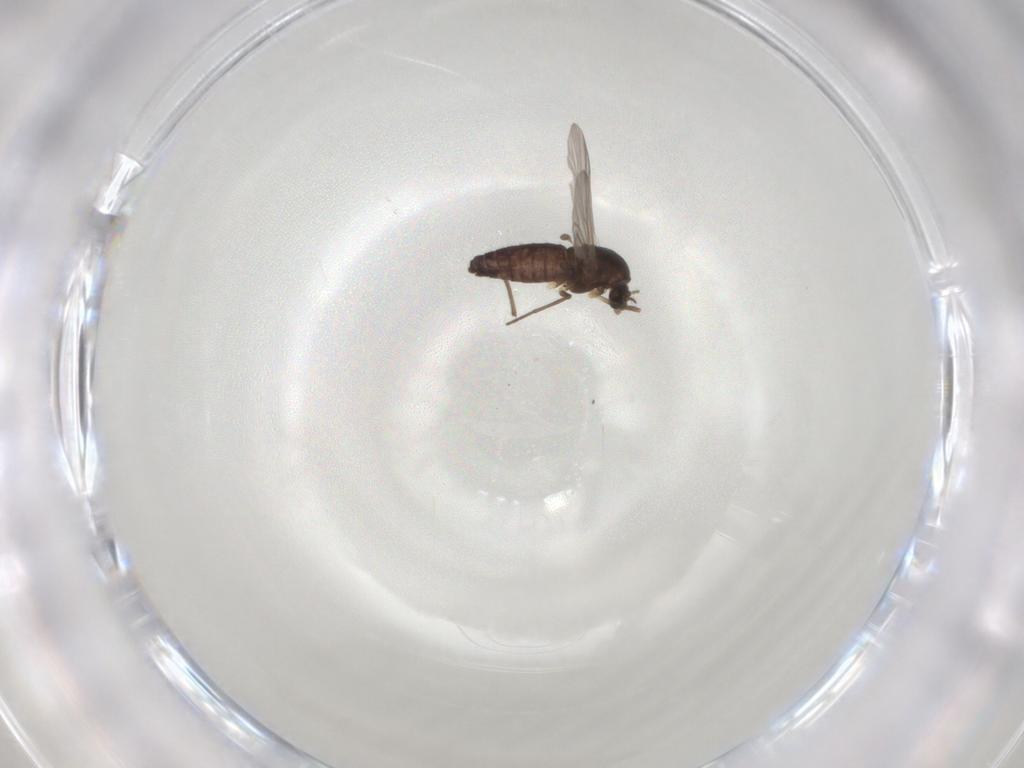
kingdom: Animalia
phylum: Arthropoda
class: Insecta
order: Diptera
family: Chironomidae
